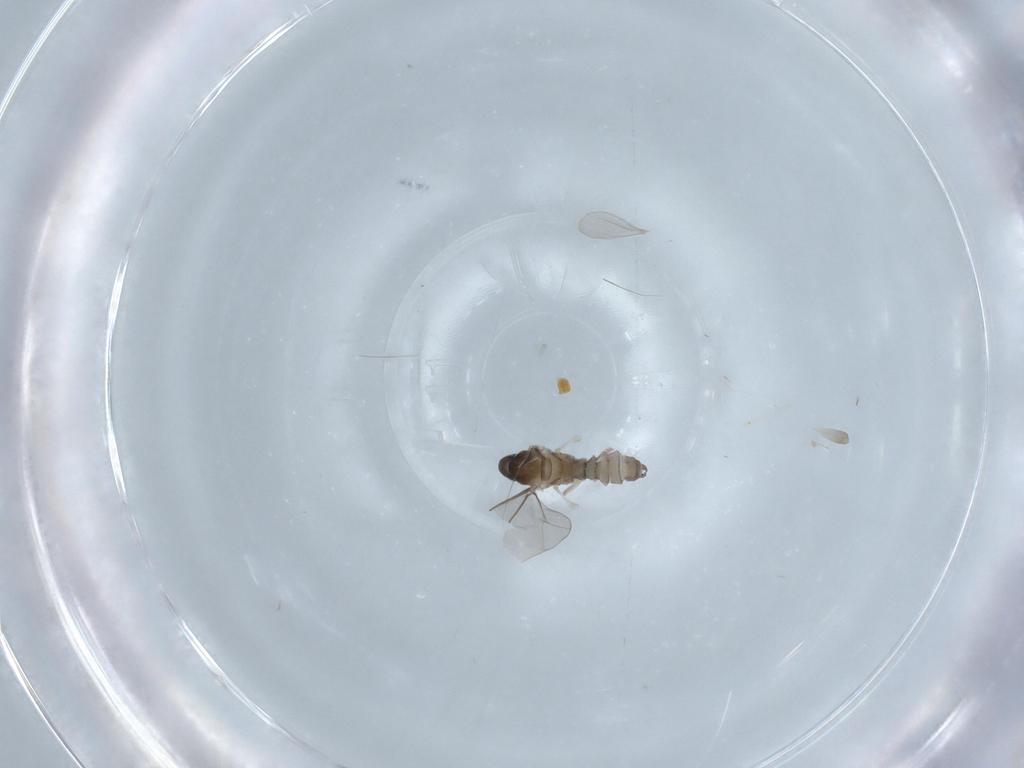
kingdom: Animalia
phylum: Arthropoda
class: Insecta
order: Diptera
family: Cecidomyiidae
